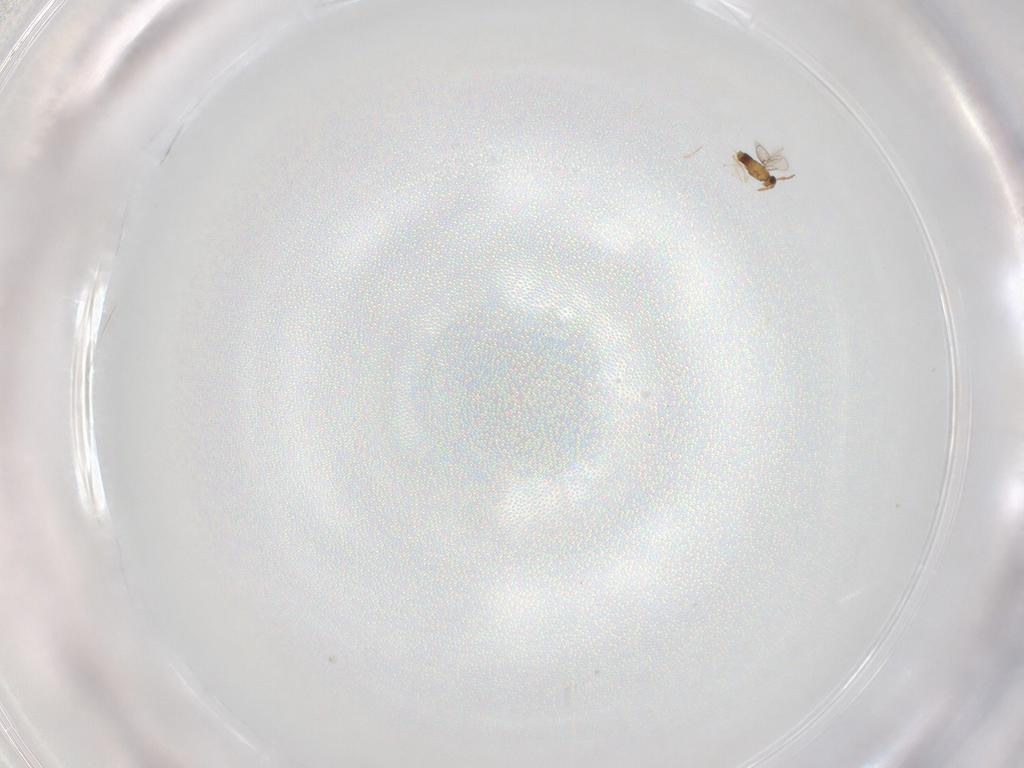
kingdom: Animalia
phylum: Arthropoda
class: Insecta
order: Hymenoptera
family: Aphelinidae
